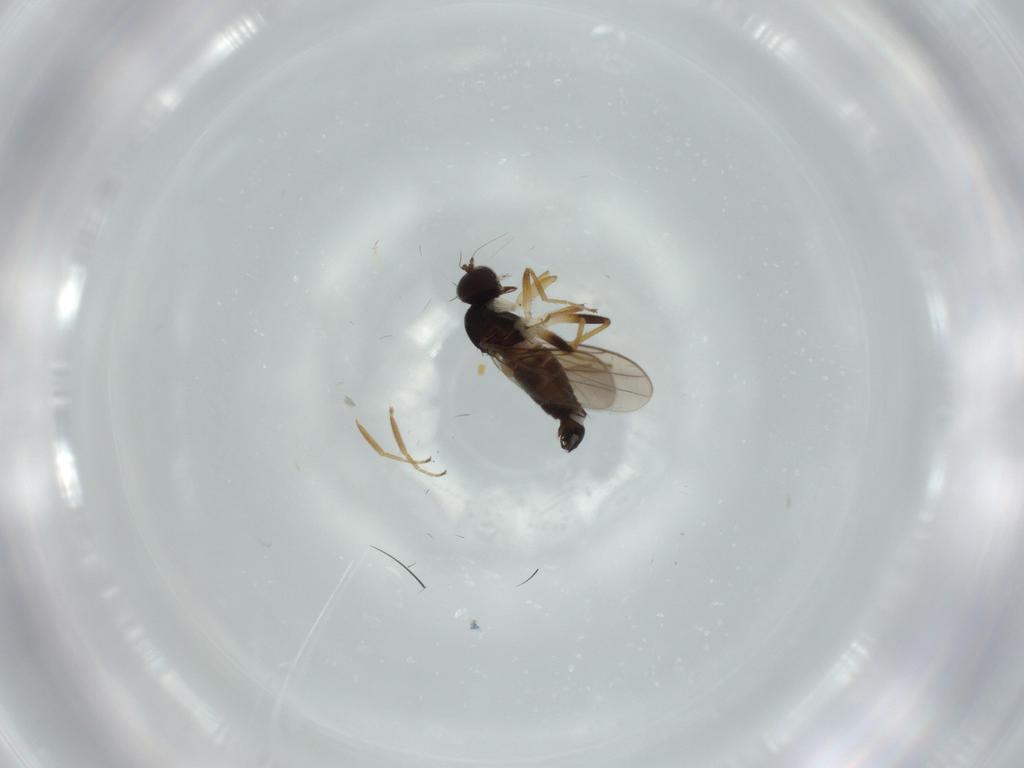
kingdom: Animalia
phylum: Arthropoda
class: Insecta
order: Diptera
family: Hybotidae
